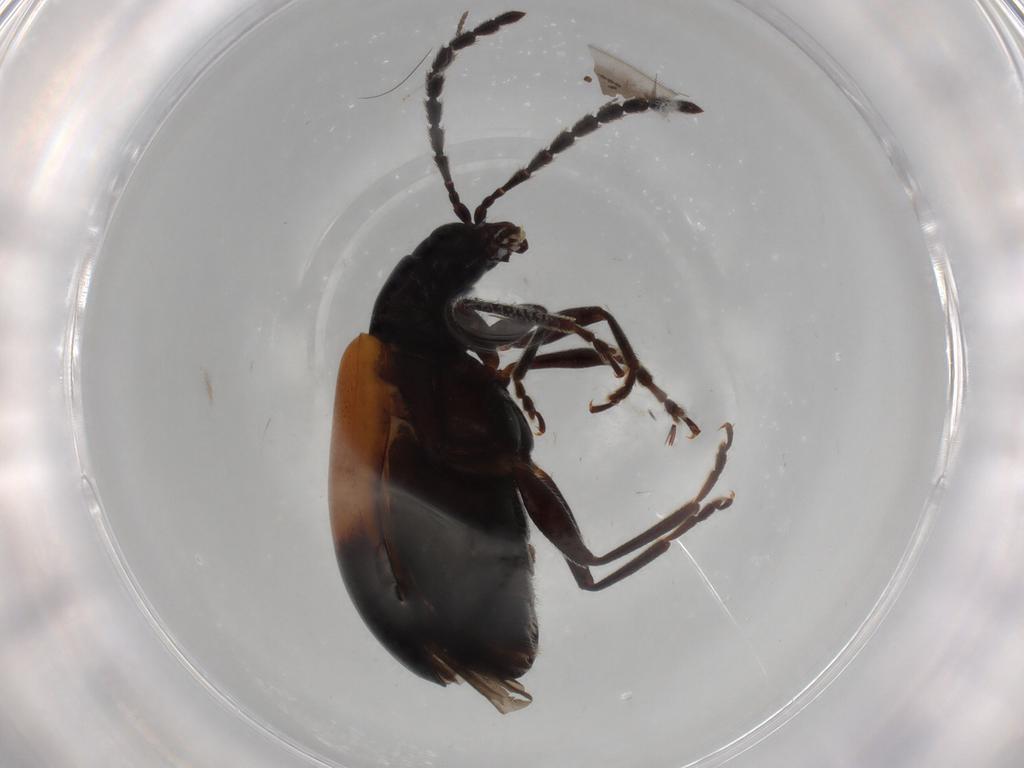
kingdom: Animalia
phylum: Arthropoda
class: Insecta
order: Coleoptera
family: Chrysomelidae
